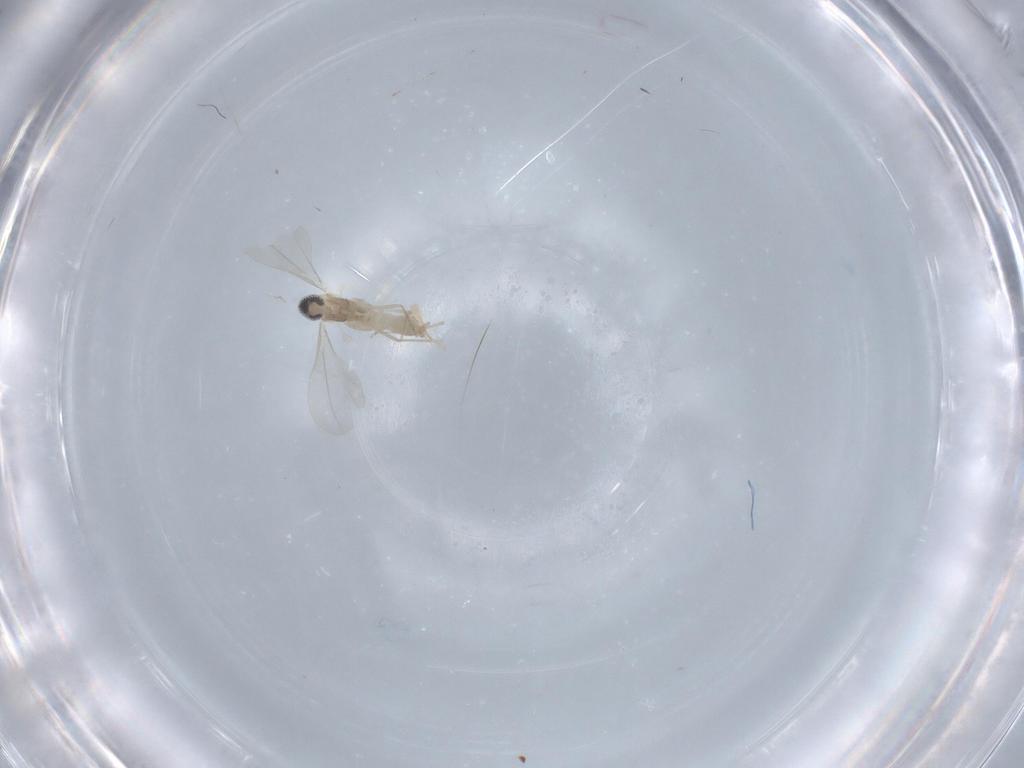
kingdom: Animalia
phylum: Arthropoda
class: Insecta
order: Diptera
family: Cecidomyiidae
